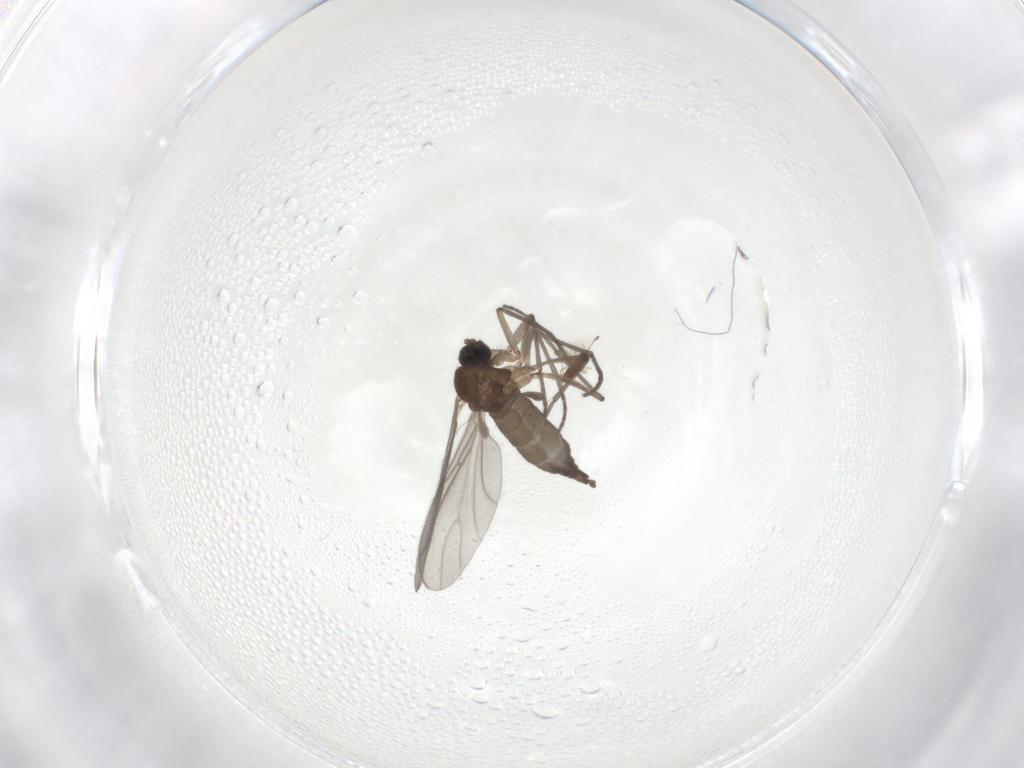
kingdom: Animalia
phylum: Arthropoda
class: Insecta
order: Diptera
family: Sciaridae
